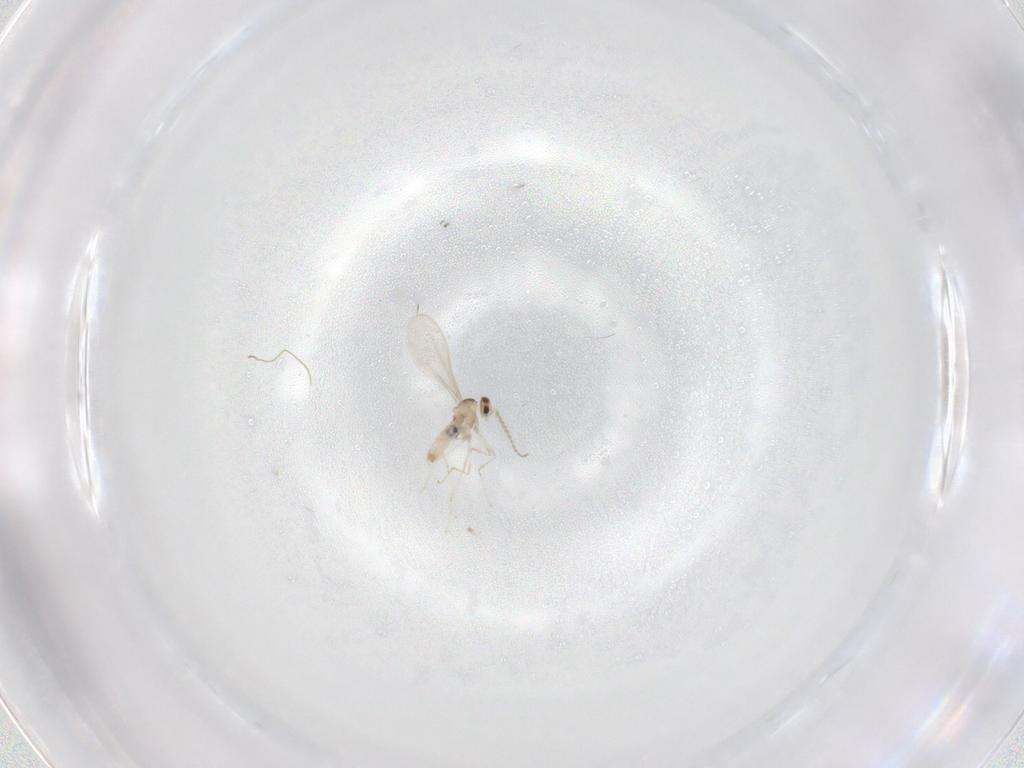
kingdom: Animalia
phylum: Arthropoda
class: Insecta
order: Diptera
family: Cecidomyiidae
